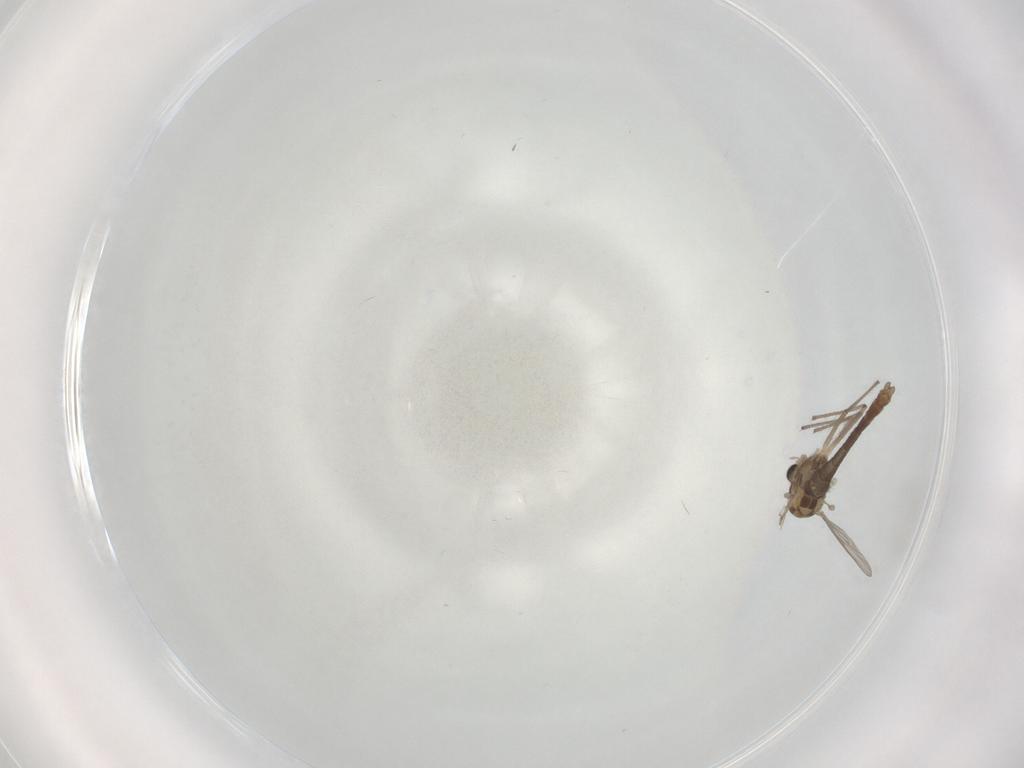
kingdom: Animalia
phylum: Arthropoda
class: Insecta
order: Diptera
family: Chironomidae
